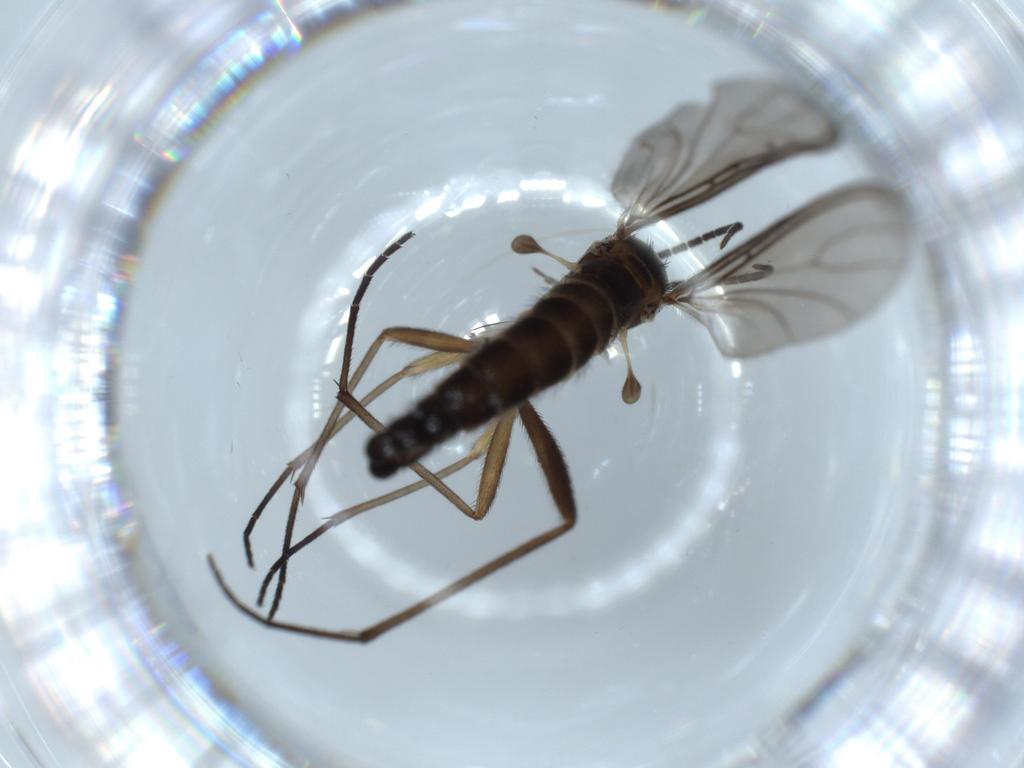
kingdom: Animalia
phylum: Arthropoda
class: Insecta
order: Diptera
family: Sciaridae
